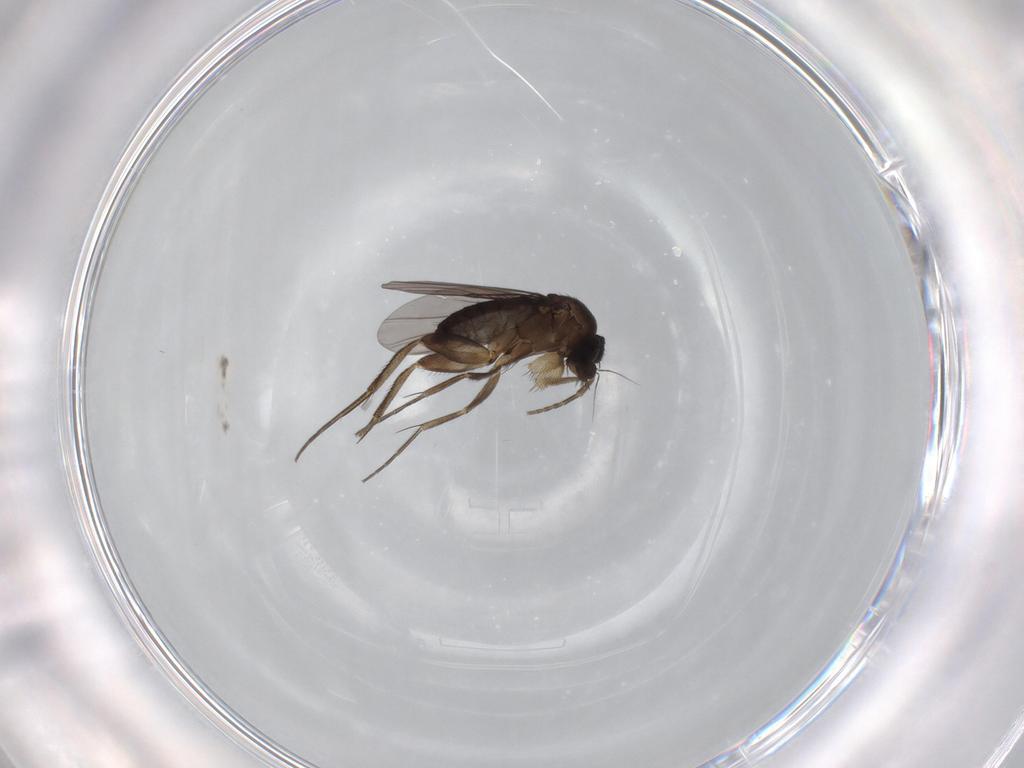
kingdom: Animalia
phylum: Arthropoda
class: Insecta
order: Diptera
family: Phoridae
